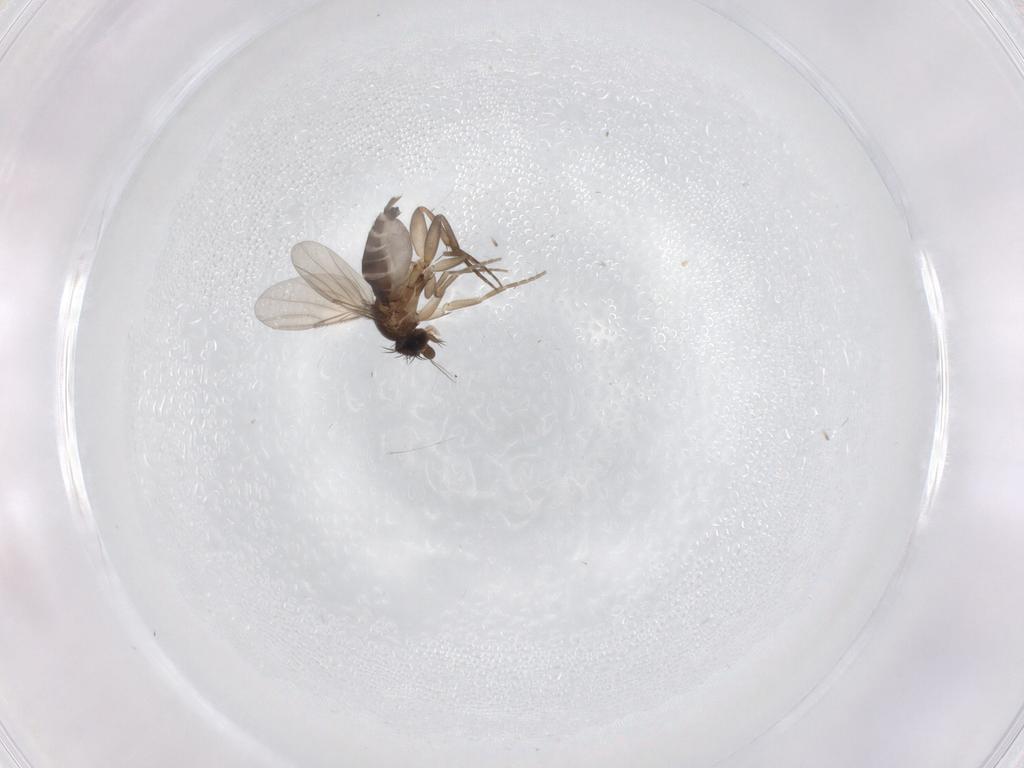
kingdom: Animalia
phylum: Arthropoda
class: Insecta
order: Diptera
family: Phoridae
